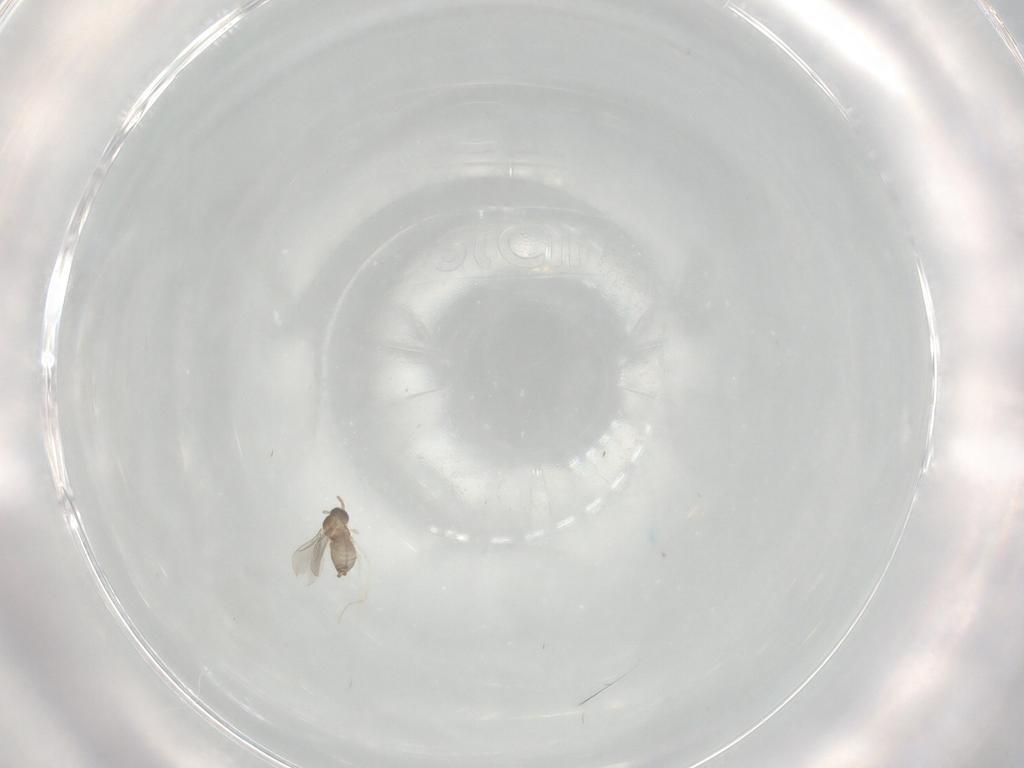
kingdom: Animalia
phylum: Arthropoda
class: Insecta
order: Diptera
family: Cecidomyiidae
